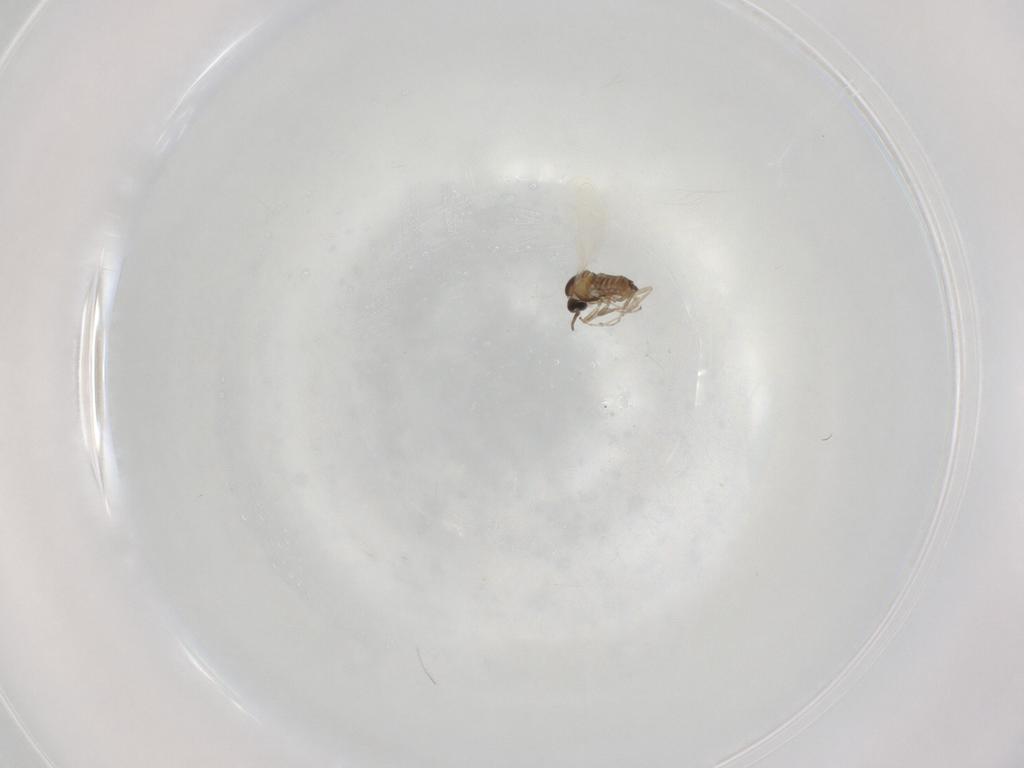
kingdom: Animalia
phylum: Arthropoda
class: Insecta
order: Diptera
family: Cecidomyiidae
